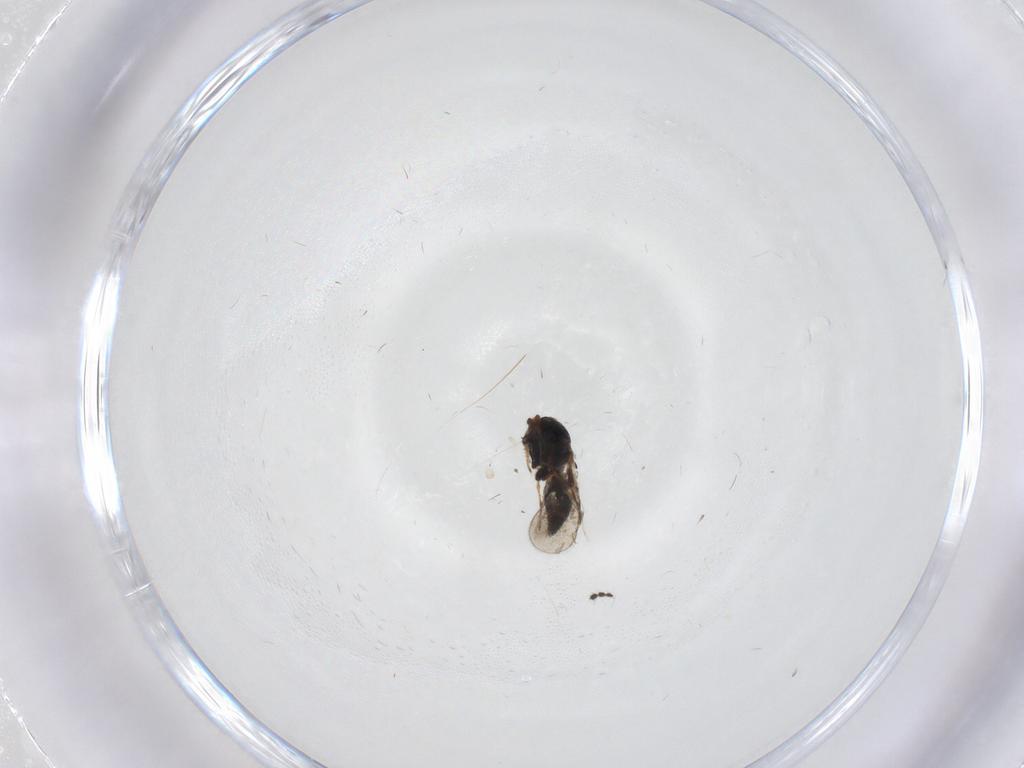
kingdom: Animalia
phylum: Arthropoda
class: Insecta
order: Hymenoptera
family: Platygastridae
